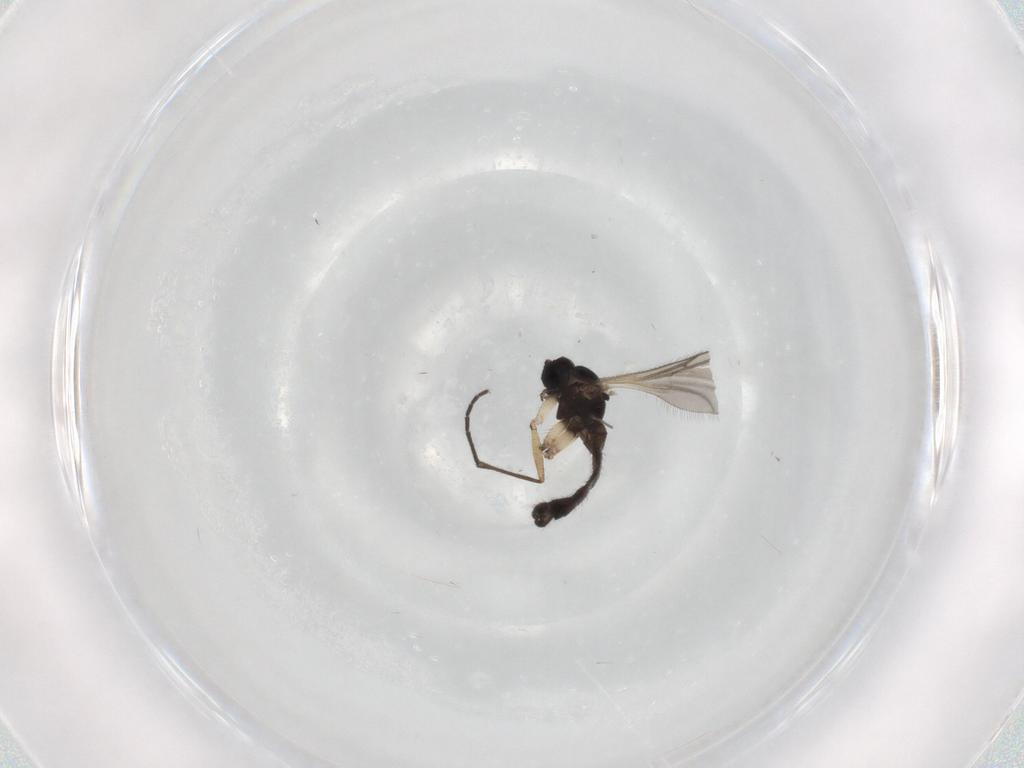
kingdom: Animalia
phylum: Arthropoda
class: Insecta
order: Diptera
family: Sciaridae
